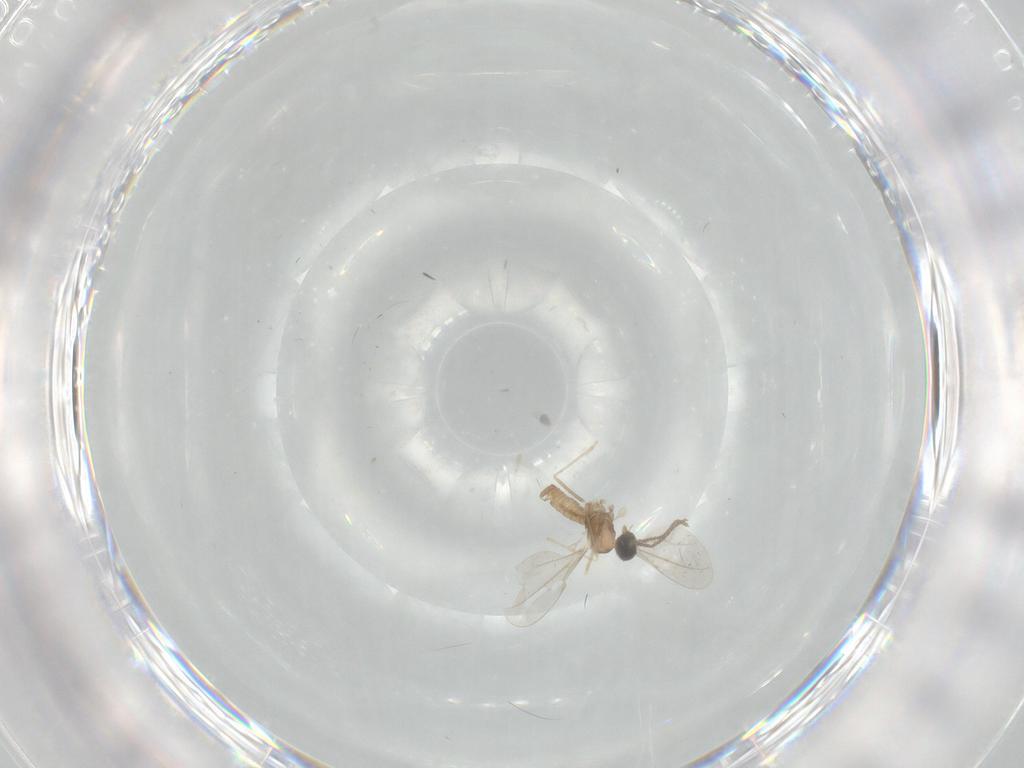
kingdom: Animalia
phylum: Arthropoda
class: Insecta
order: Diptera
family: Cecidomyiidae
